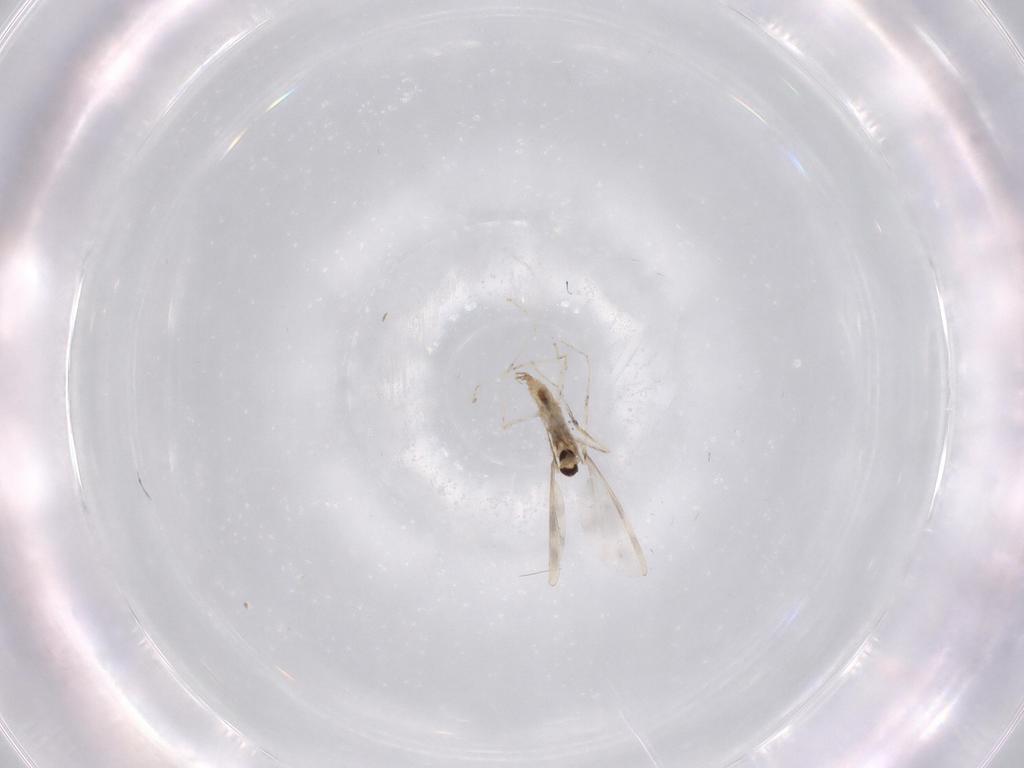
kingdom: Animalia
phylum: Arthropoda
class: Insecta
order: Diptera
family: Cecidomyiidae
